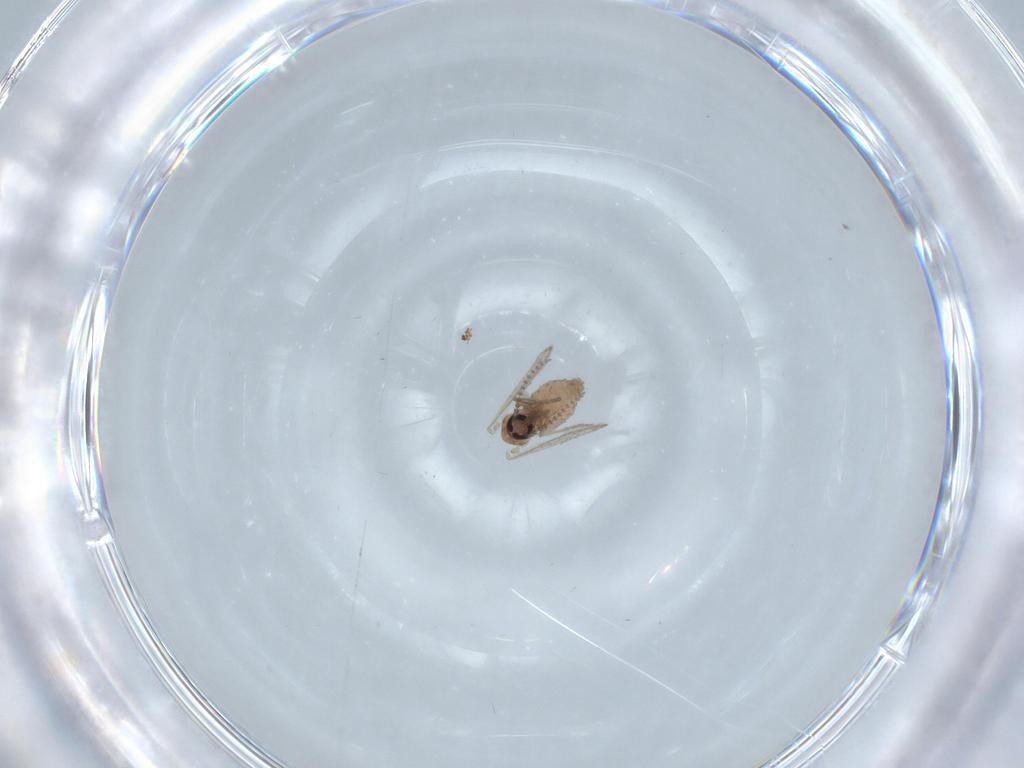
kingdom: Animalia
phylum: Arthropoda
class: Insecta
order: Diptera
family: Psychodidae
